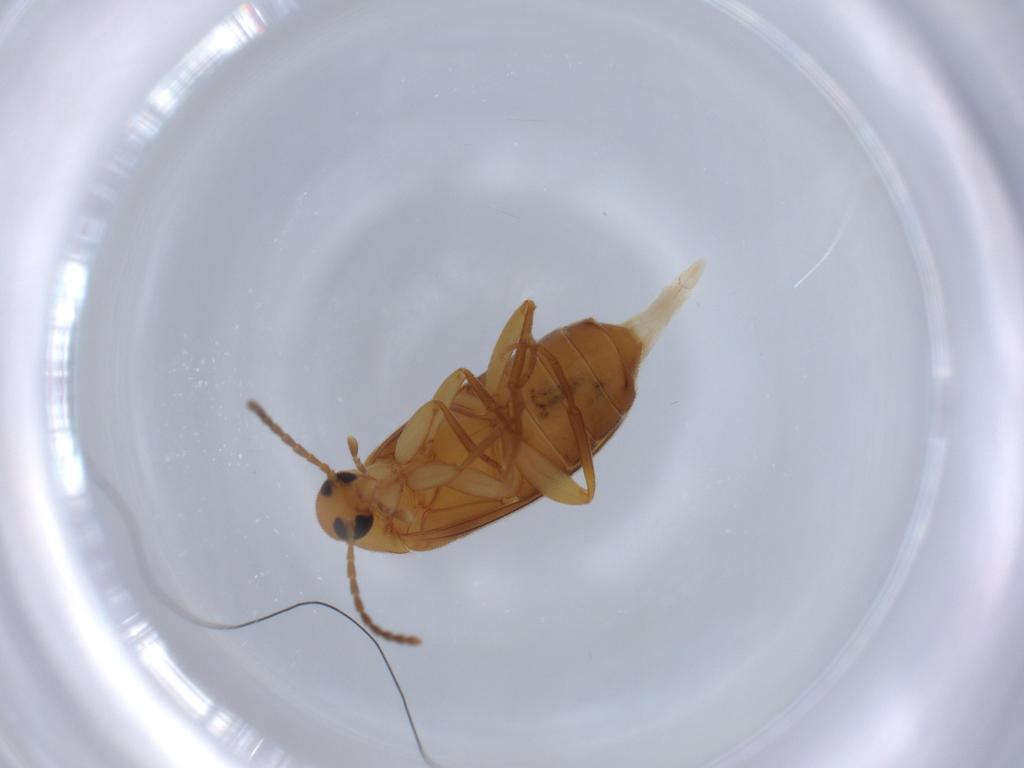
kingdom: Animalia
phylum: Arthropoda
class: Insecta
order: Coleoptera
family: Scraptiidae
